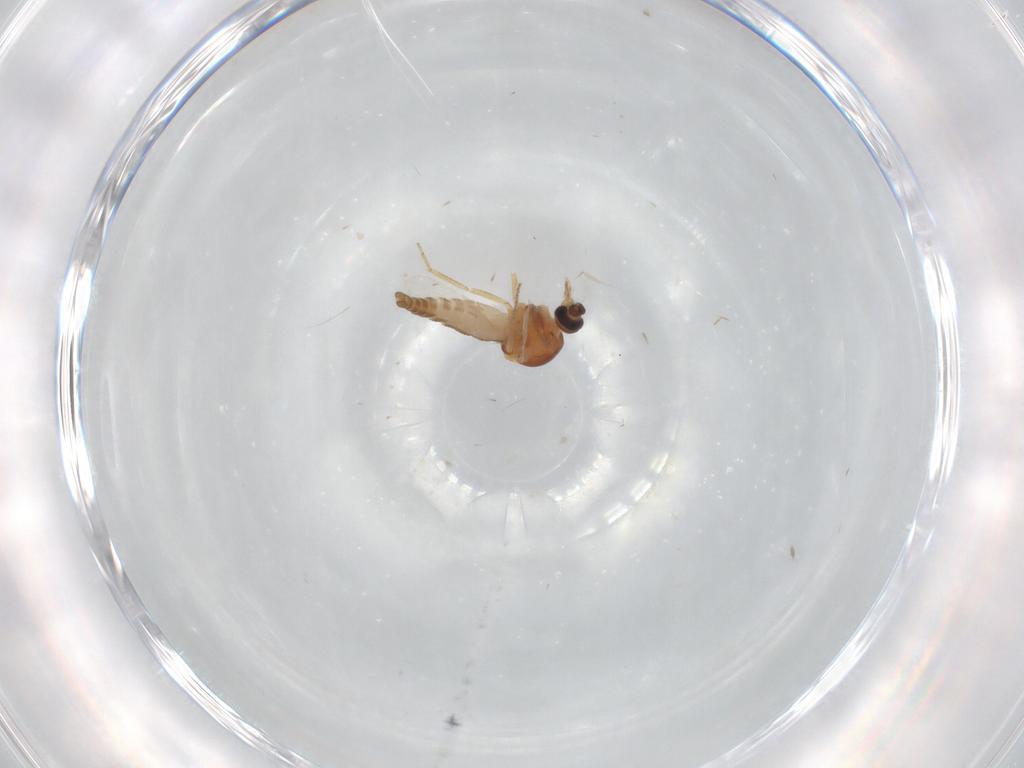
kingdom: Animalia
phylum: Arthropoda
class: Insecta
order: Diptera
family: Ceratopogonidae
